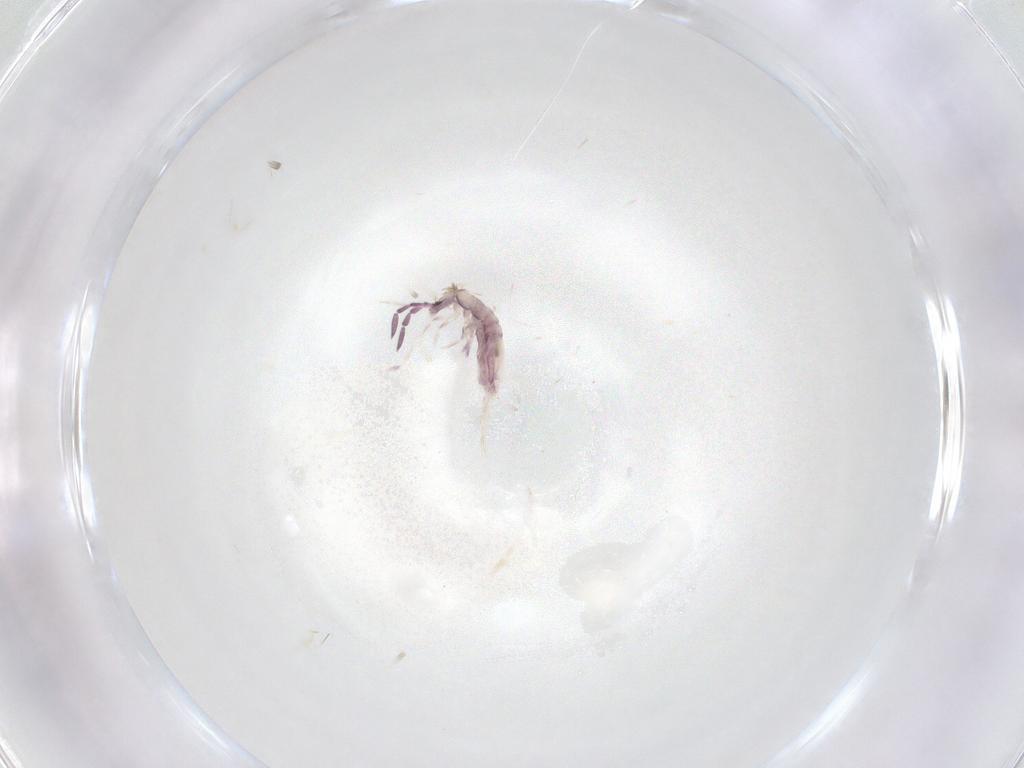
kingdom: Animalia
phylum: Arthropoda
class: Collembola
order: Entomobryomorpha
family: Entomobryidae
